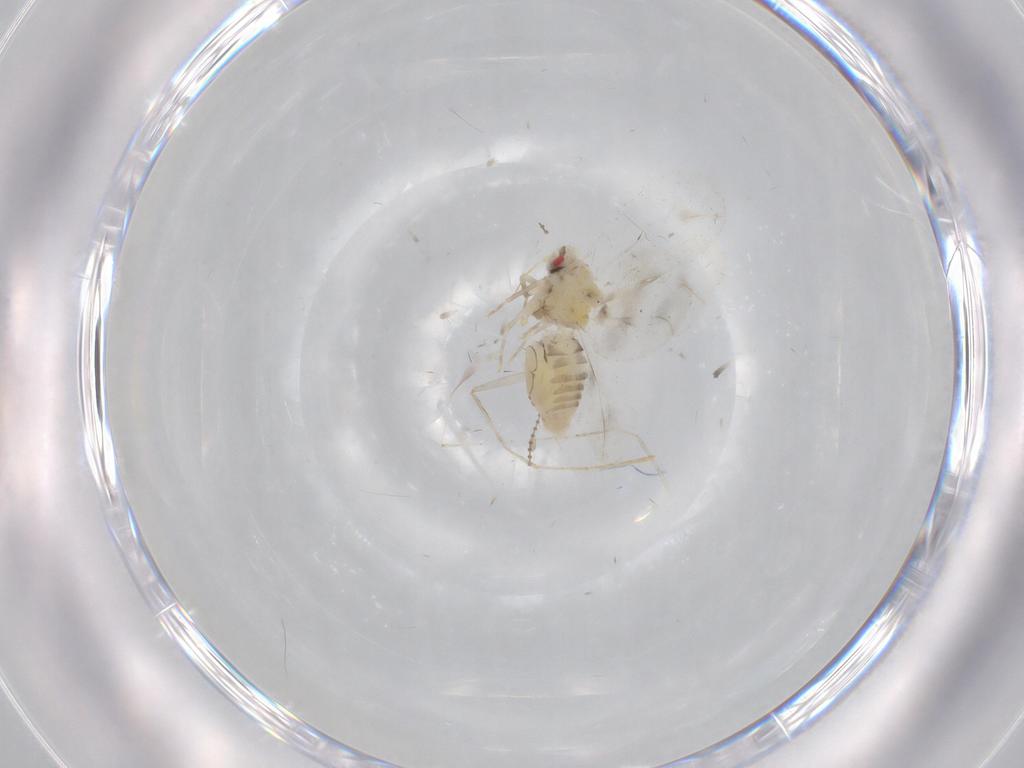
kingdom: Animalia
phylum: Arthropoda
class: Insecta
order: Hemiptera
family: Aleyrodidae
